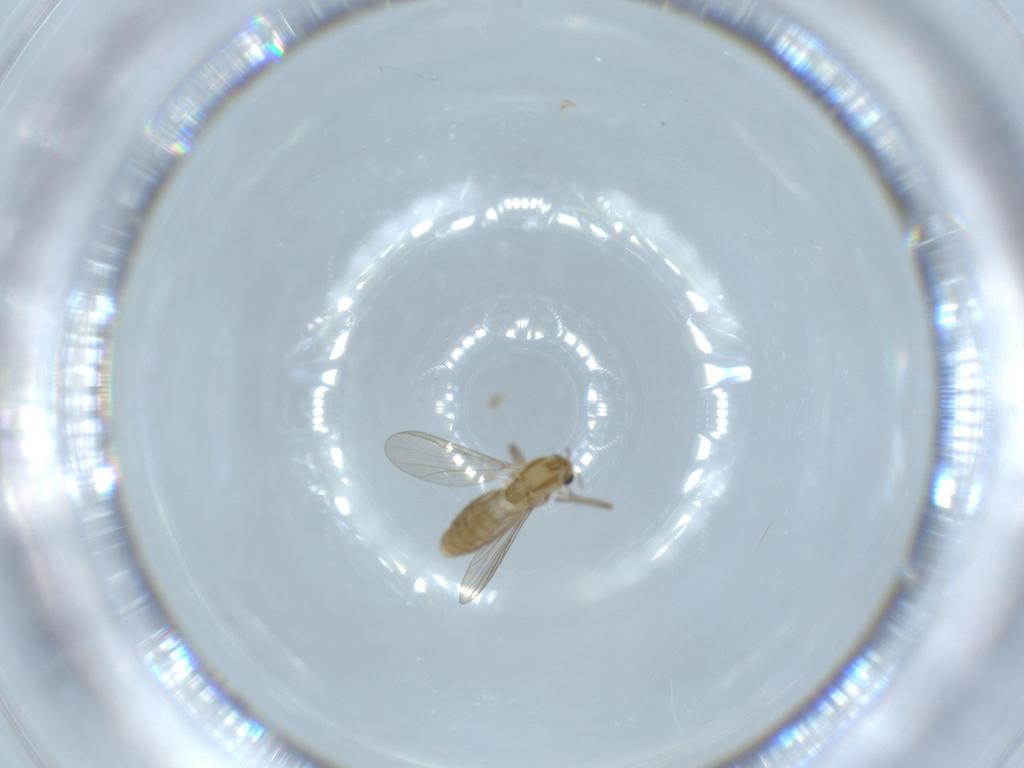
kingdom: Animalia
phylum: Arthropoda
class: Insecta
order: Diptera
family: Chironomidae
